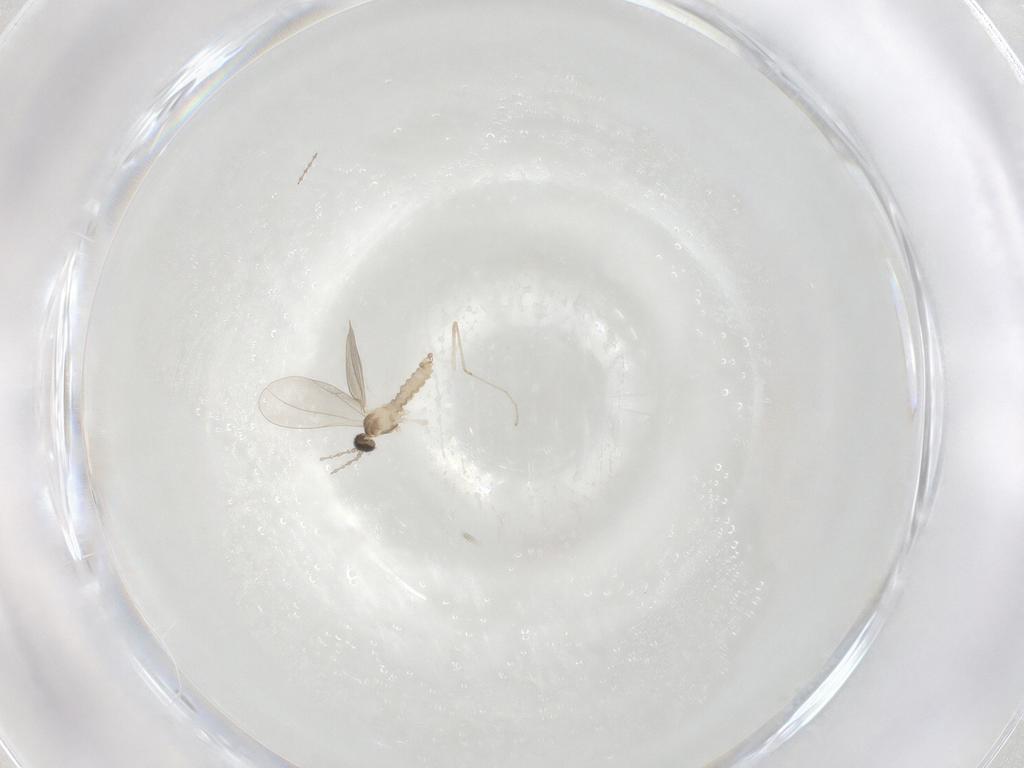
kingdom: Animalia
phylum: Arthropoda
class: Insecta
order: Diptera
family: Cecidomyiidae
